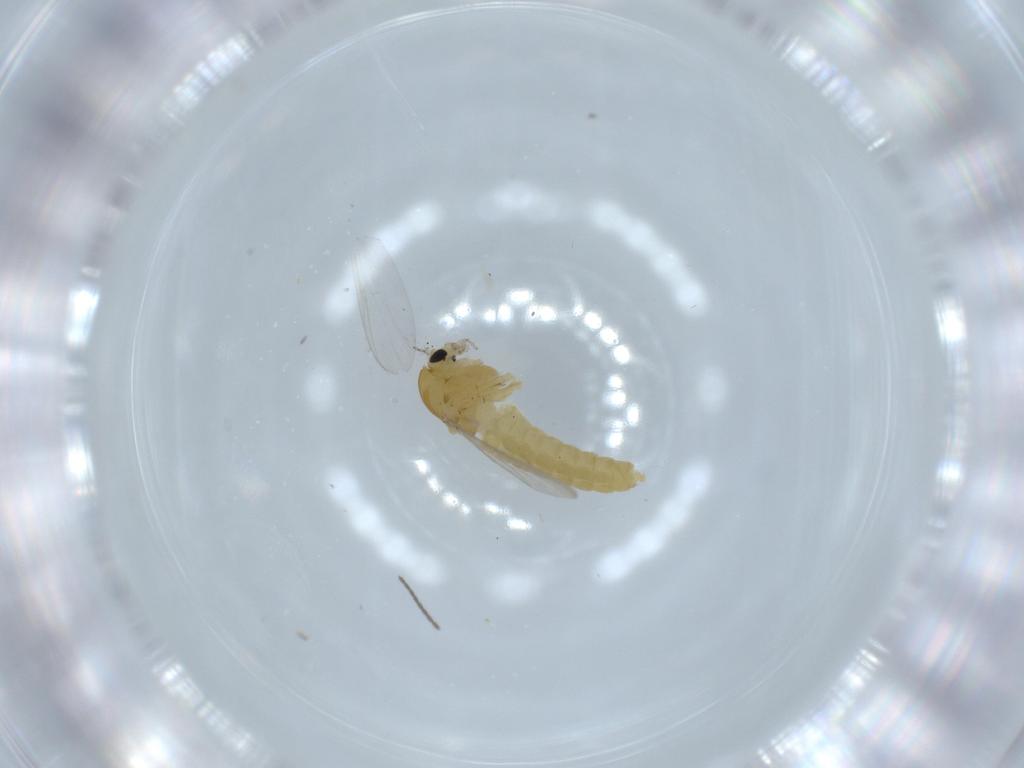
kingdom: Animalia
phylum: Arthropoda
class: Insecta
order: Diptera
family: Chironomidae
